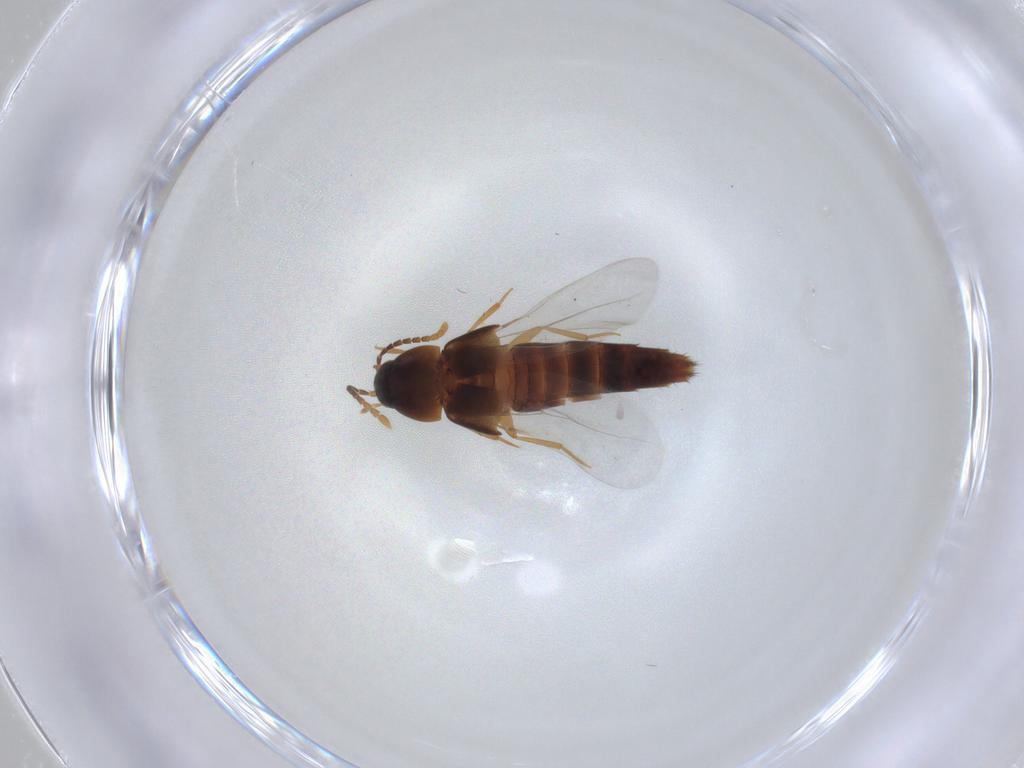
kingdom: Animalia
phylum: Arthropoda
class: Insecta
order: Coleoptera
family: Staphylinidae
